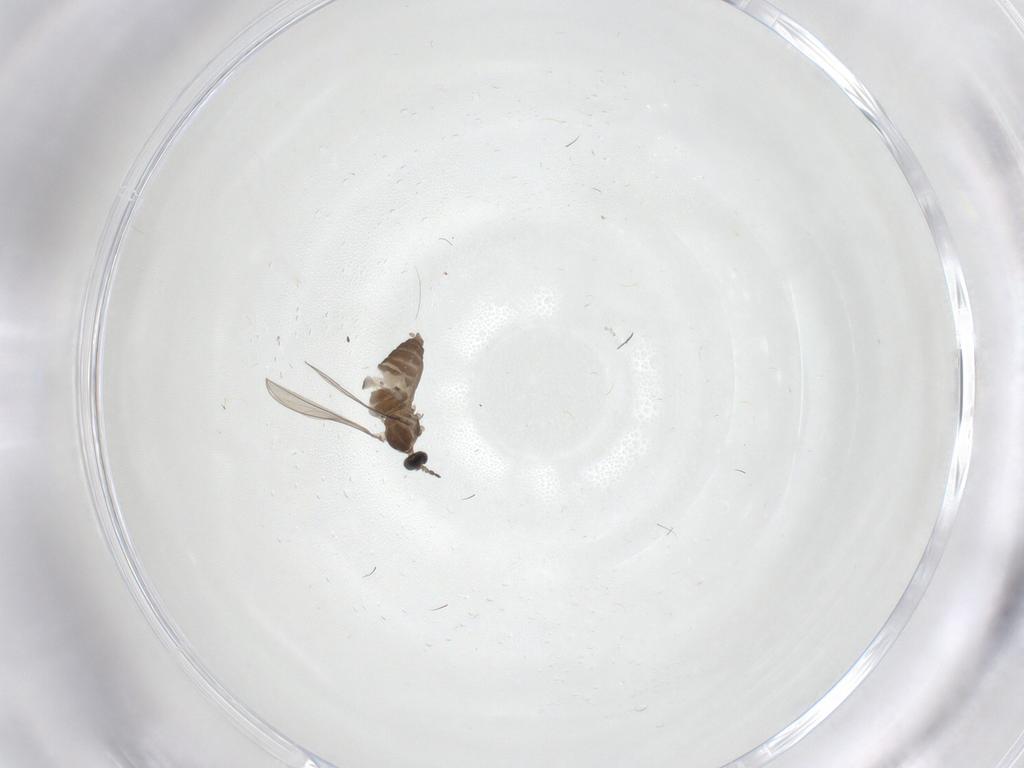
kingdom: Animalia
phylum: Arthropoda
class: Insecta
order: Diptera
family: Cecidomyiidae
